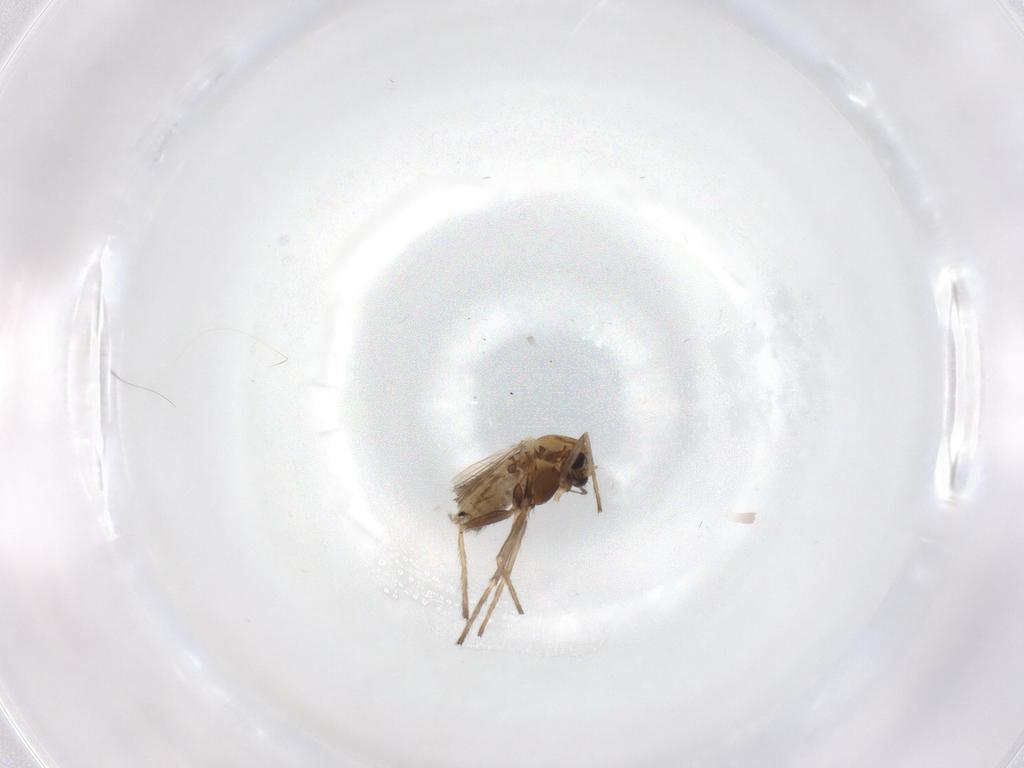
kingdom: Animalia
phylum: Arthropoda
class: Insecta
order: Diptera
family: Chironomidae
